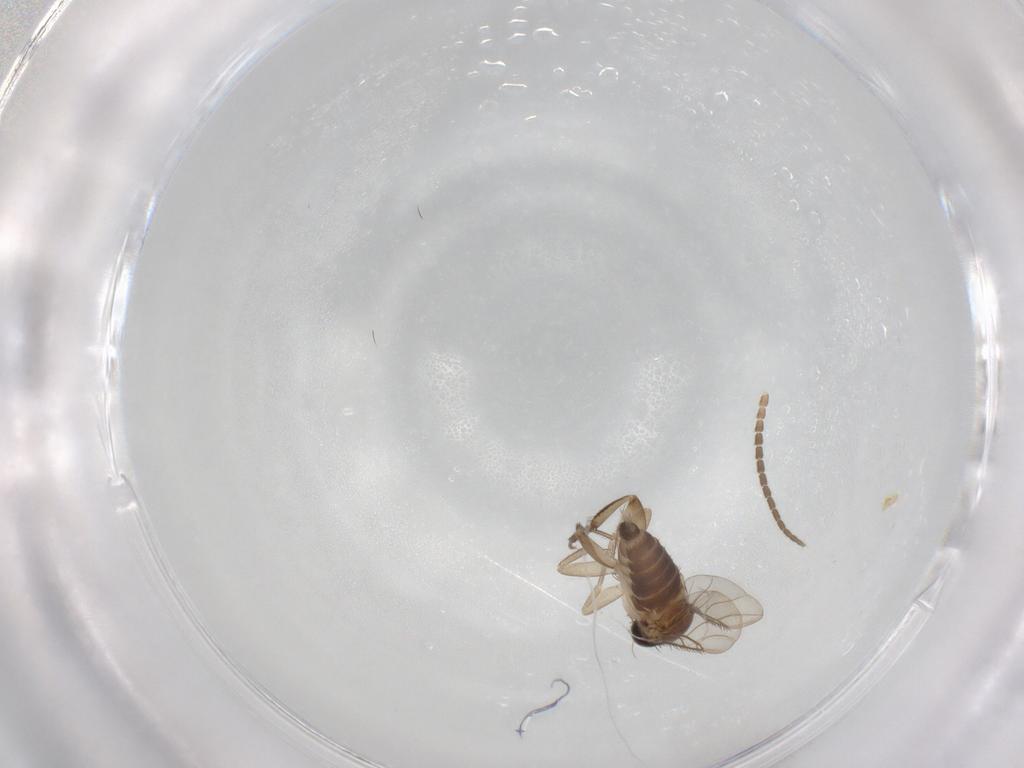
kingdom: Animalia
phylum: Arthropoda
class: Insecta
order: Diptera
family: Phoridae
